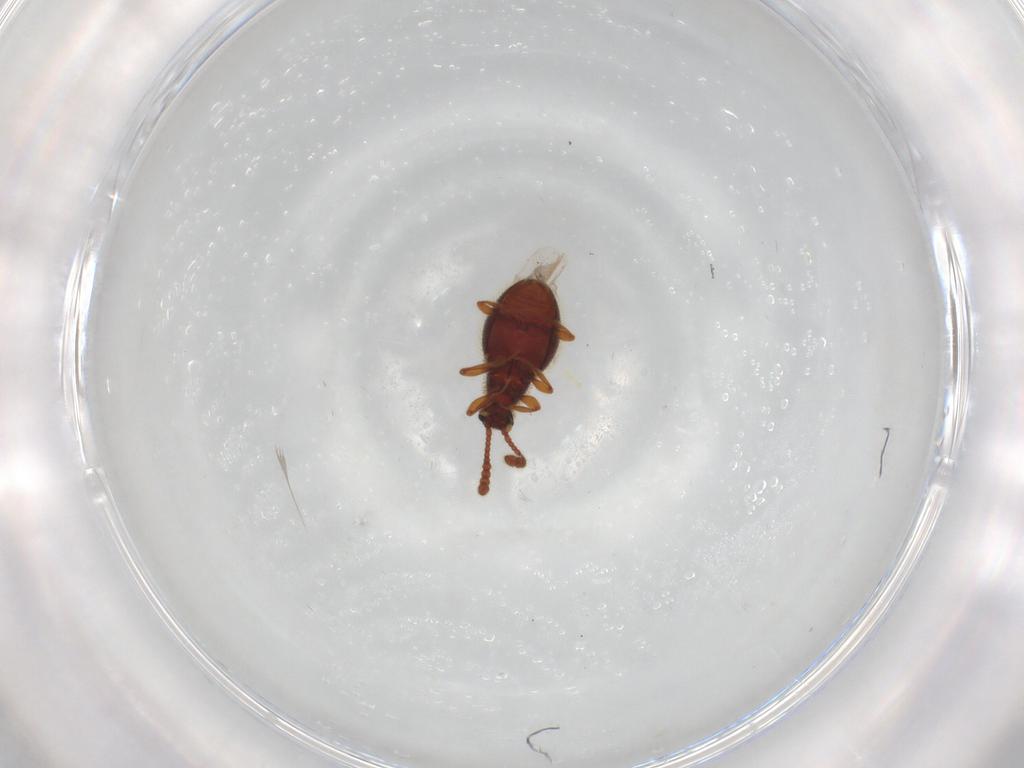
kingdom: Animalia
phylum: Arthropoda
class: Insecta
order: Coleoptera
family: Staphylinidae
